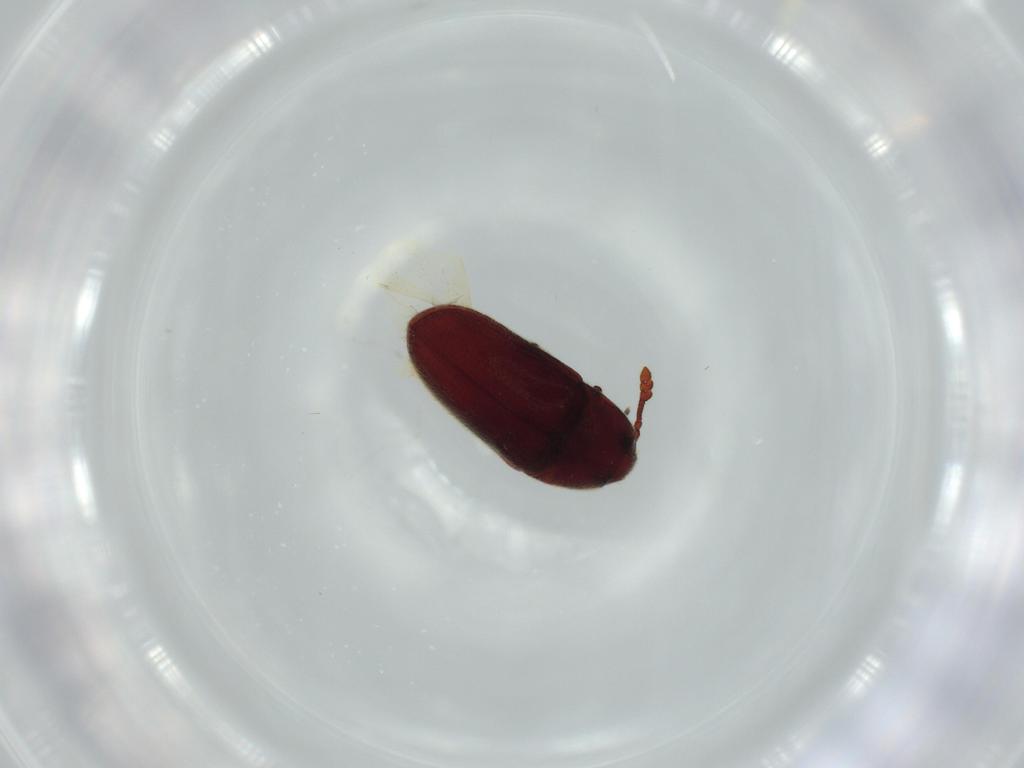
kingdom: Animalia
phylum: Arthropoda
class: Insecta
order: Coleoptera
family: Throscidae
